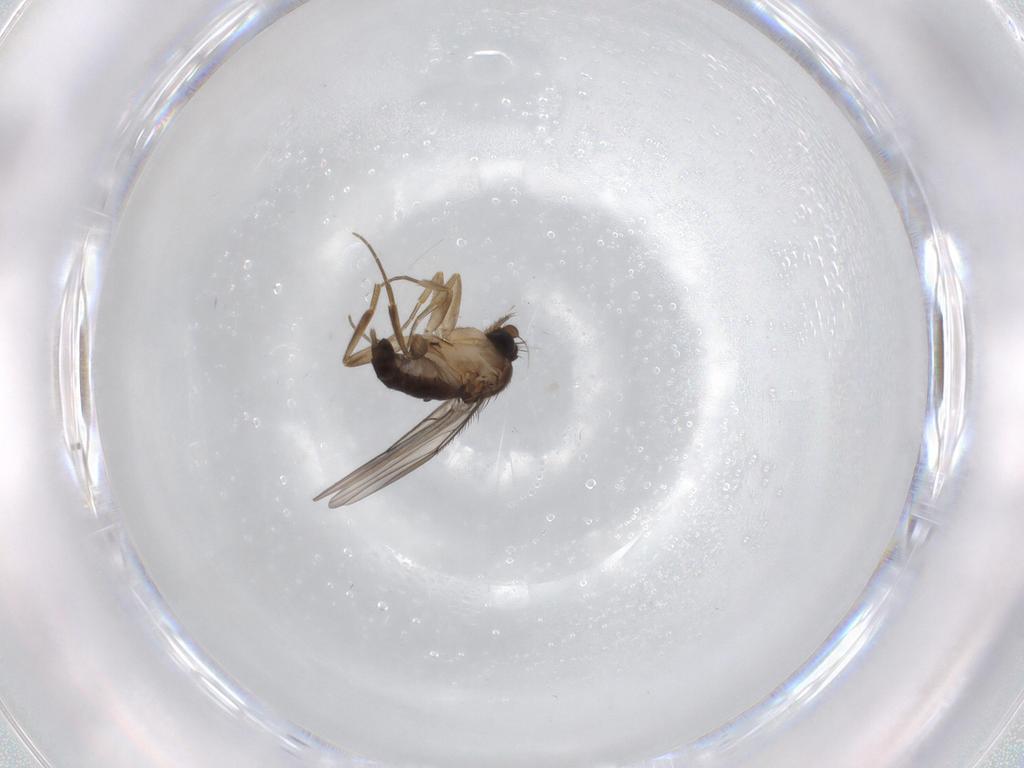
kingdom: Animalia
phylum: Arthropoda
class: Insecta
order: Diptera
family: Phoridae
